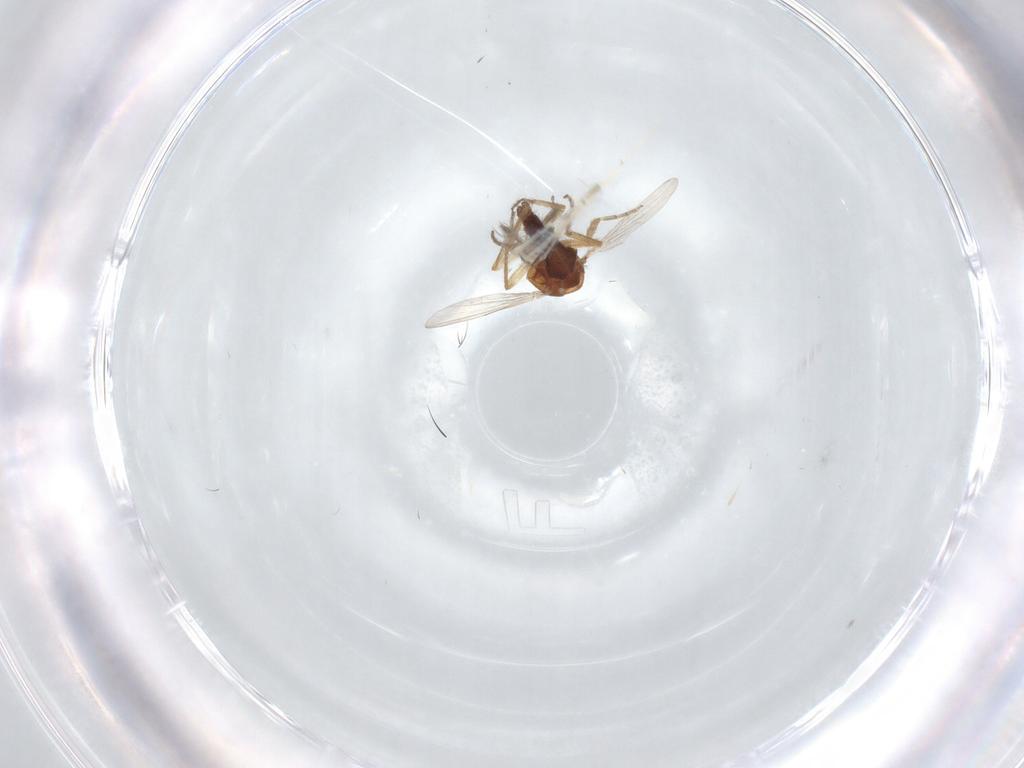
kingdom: Animalia
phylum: Arthropoda
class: Insecta
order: Diptera
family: Ceratopogonidae
